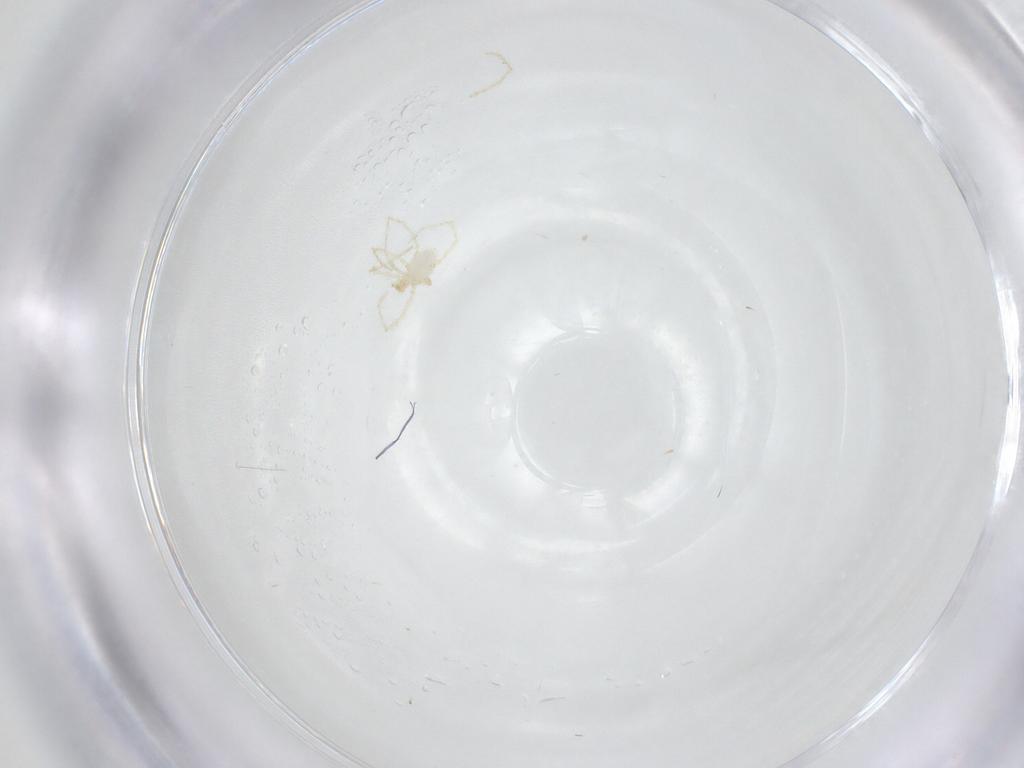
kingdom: Animalia
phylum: Arthropoda
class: Arachnida
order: Trombidiformes
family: Erythraeidae
